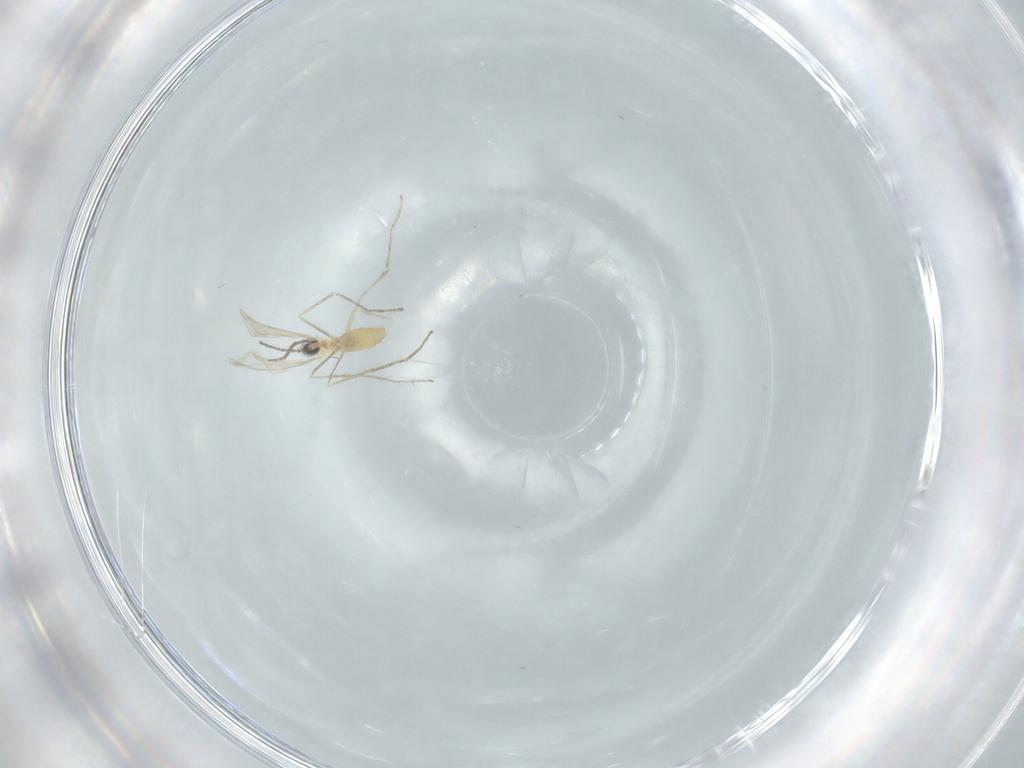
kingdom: Animalia
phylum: Arthropoda
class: Insecta
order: Diptera
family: Cecidomyiidae
